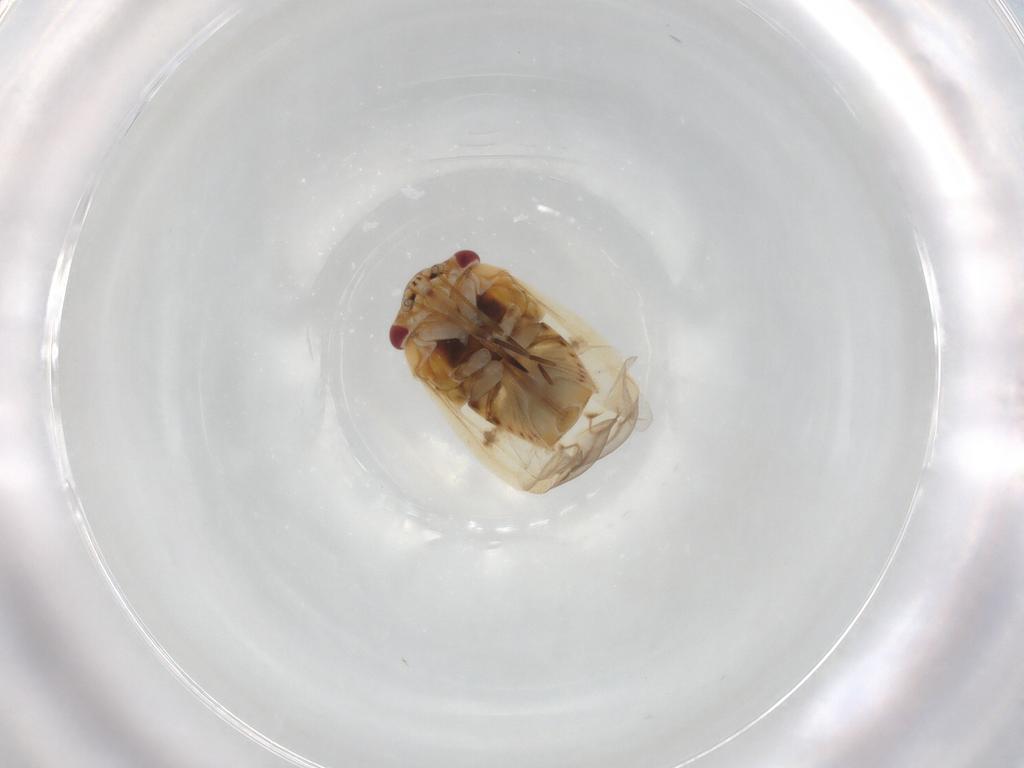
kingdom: Animalia
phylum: Arthropoda
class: Insecta
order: Hemiptera
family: Miridae
